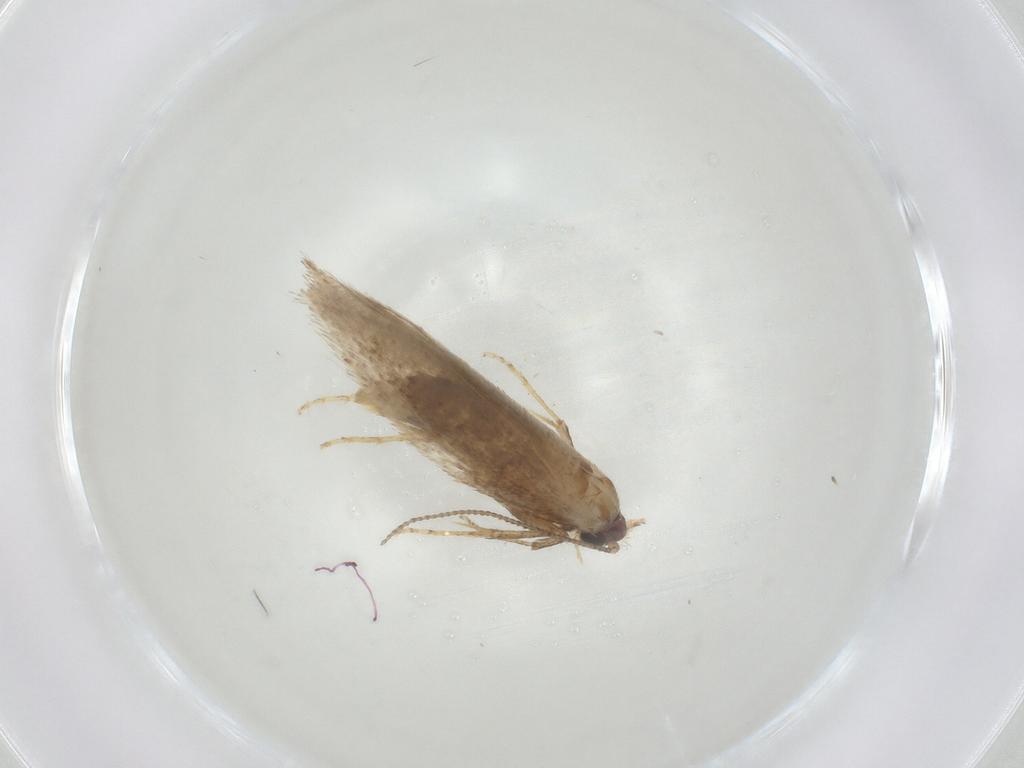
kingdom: Animalia
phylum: Arthropoda
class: Insecta
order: Lepidoptera
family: Nepticulidae
